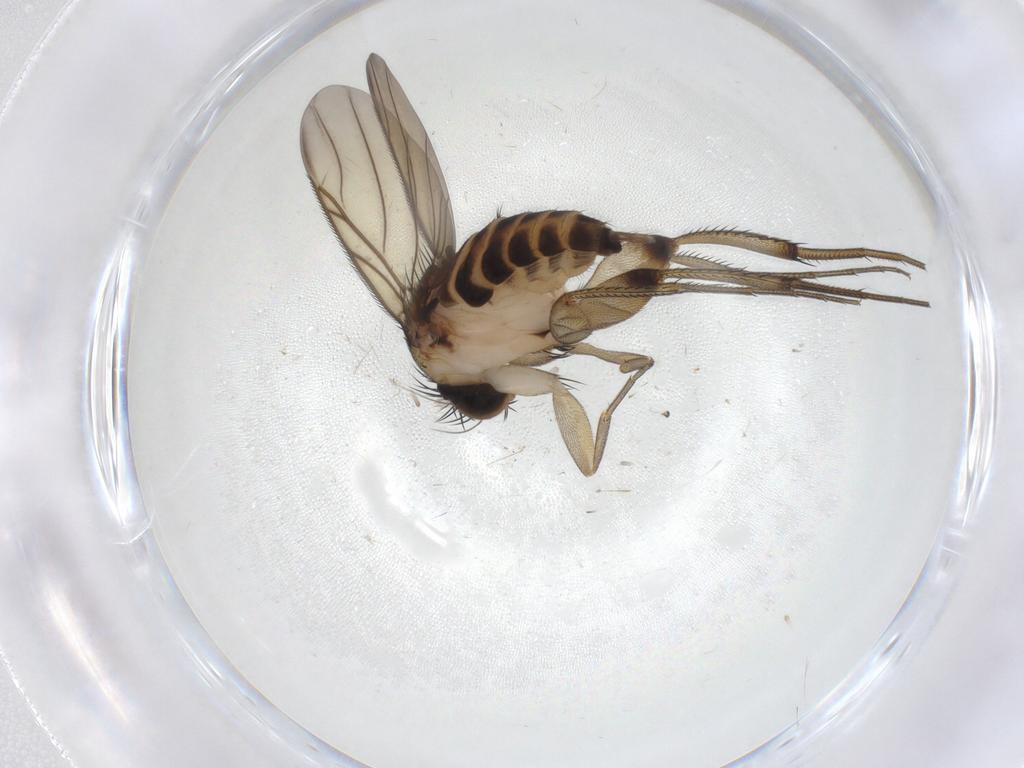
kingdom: Animalia
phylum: Arthropoda
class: Insecta
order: Diptera
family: Phoridae
